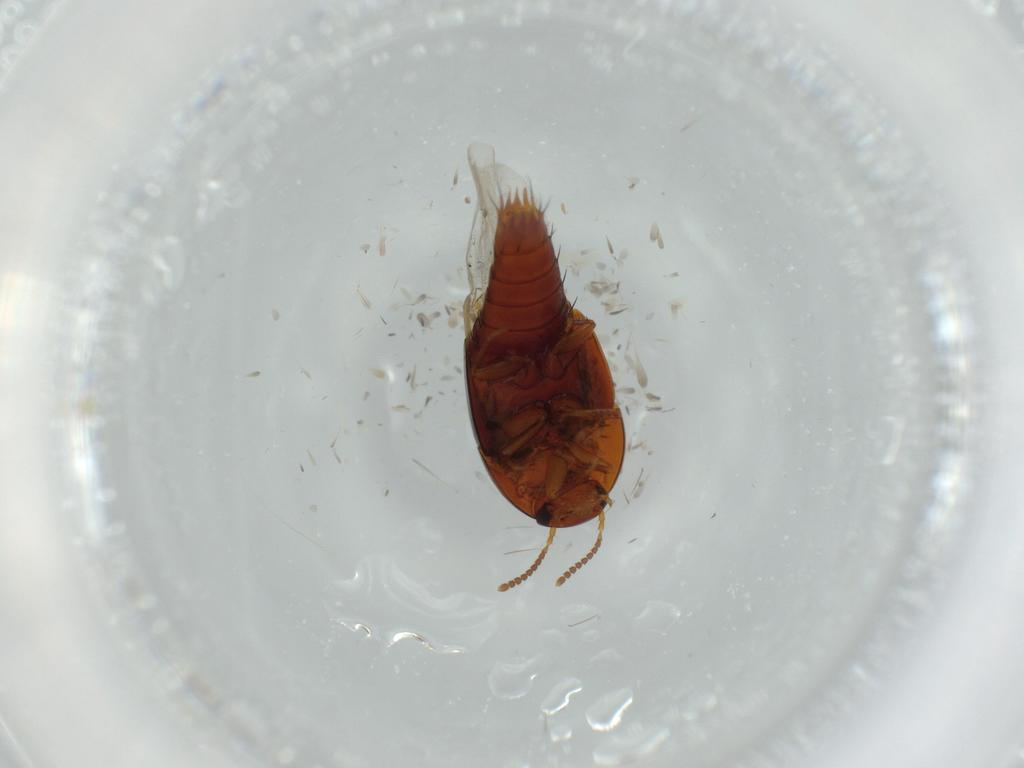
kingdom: Animalia
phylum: Arthropoda
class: Insecta
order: Coleoptera
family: Staphylinidae
